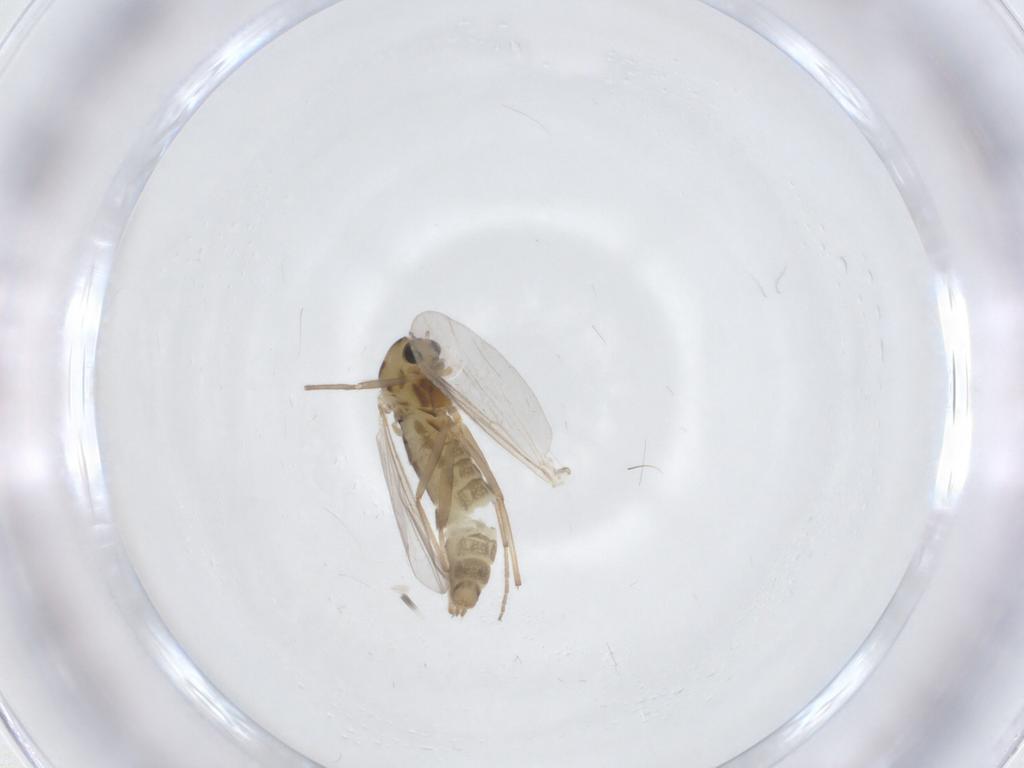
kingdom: Animalia
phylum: Arthropoda
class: Insecta
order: Diptera
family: Chironomidae
